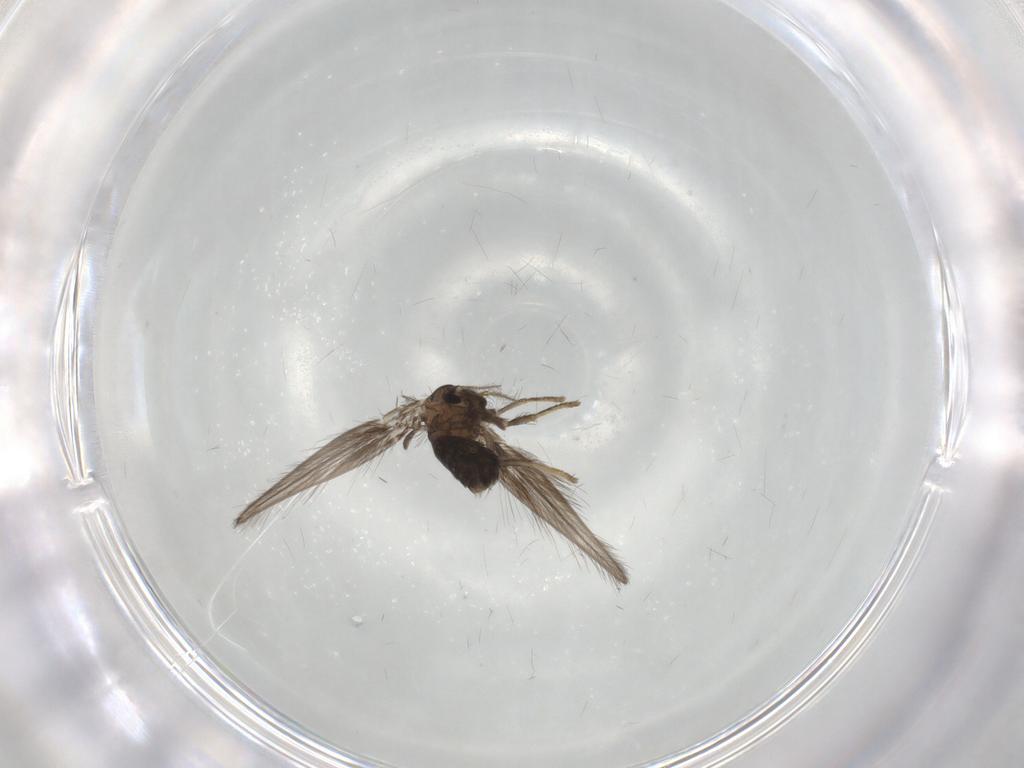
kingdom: Animalia
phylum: Arthropoda
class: Insecta
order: Diptera
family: Psychodidae
